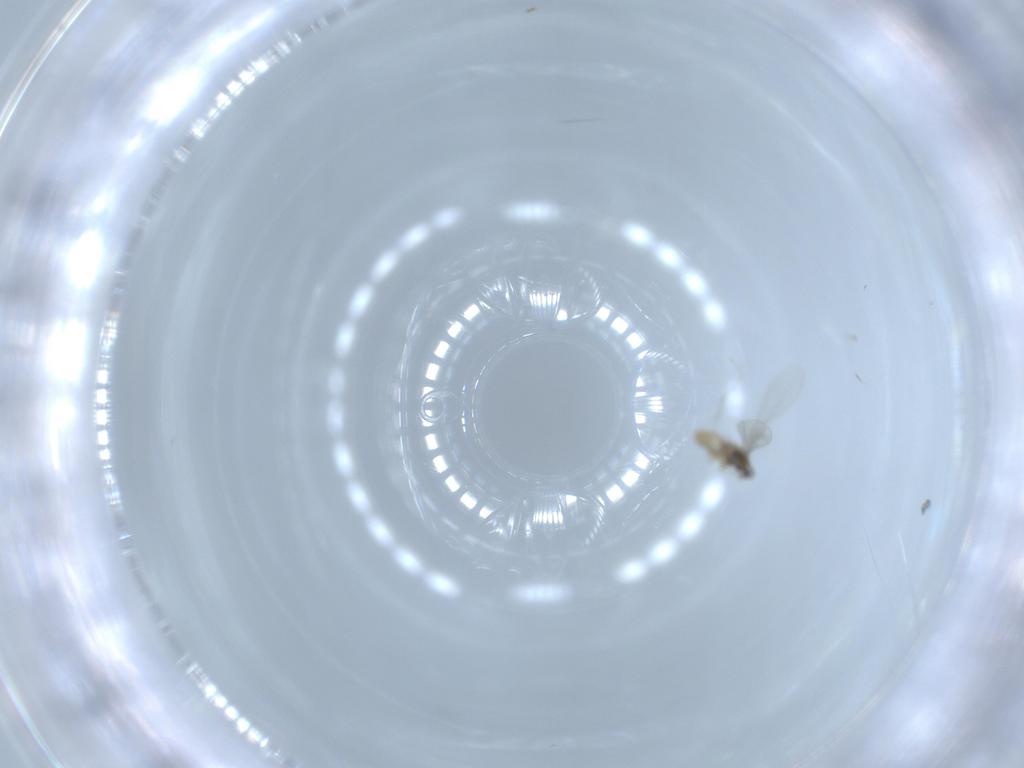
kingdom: Animalia
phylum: Arthropoda
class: Insecta
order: Diptera
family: Cecidomyiidae
